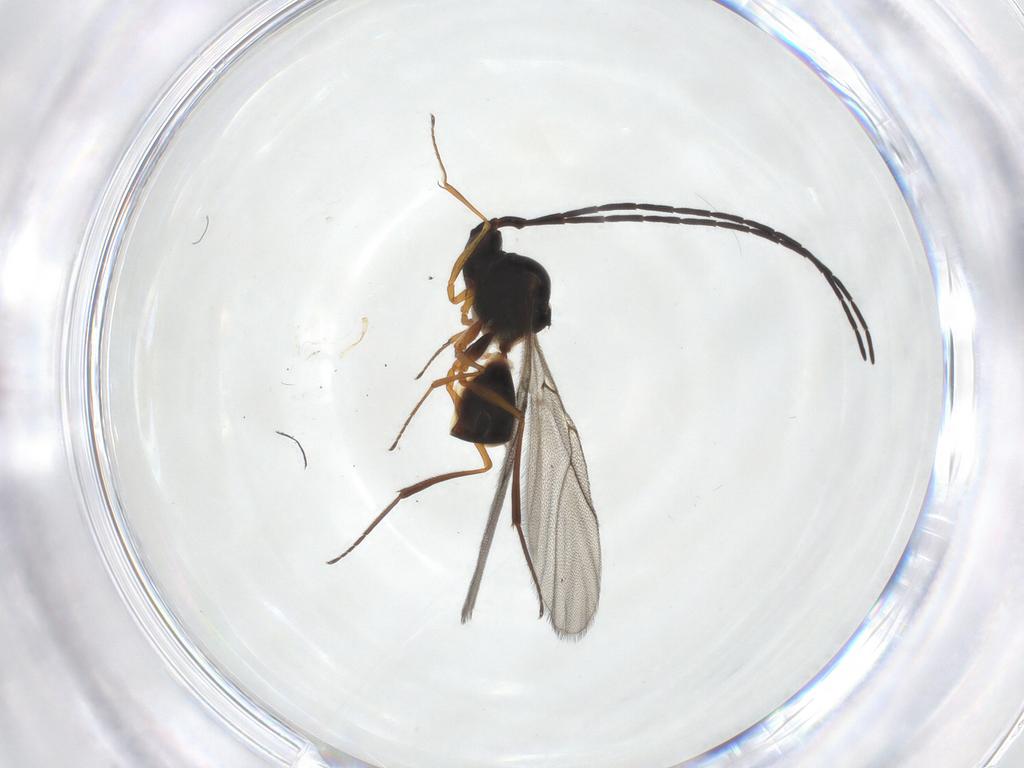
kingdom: Animalia
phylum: Arthropoda
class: Insecta
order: Hymenoptera
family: Figitidae
